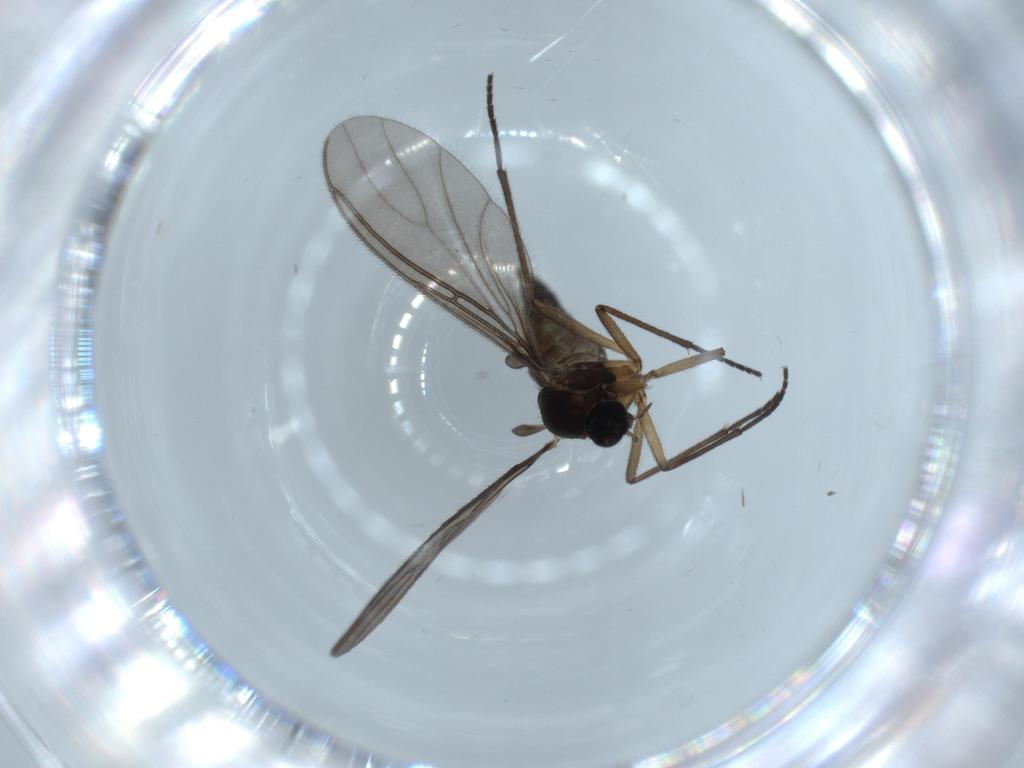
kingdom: Animalia
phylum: Arthropoda
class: Insecta
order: Diptera
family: Sciaridae
